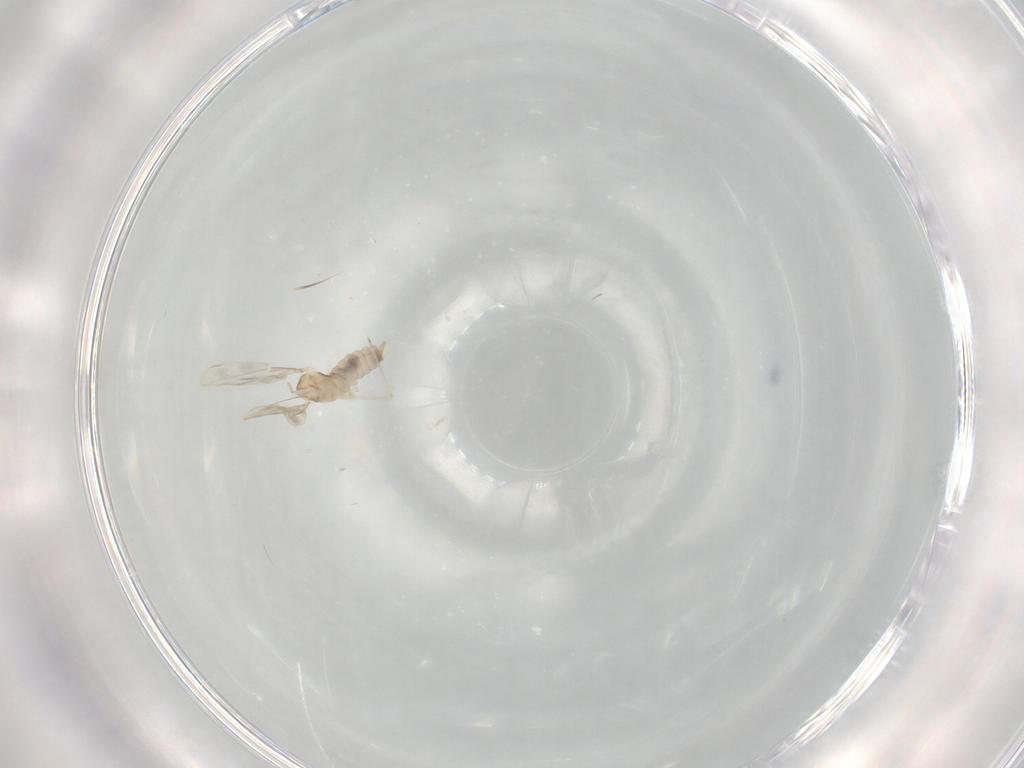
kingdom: Animalia
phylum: Arthropoda
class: Insecta
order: Diptera
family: Cecidomyiidae
